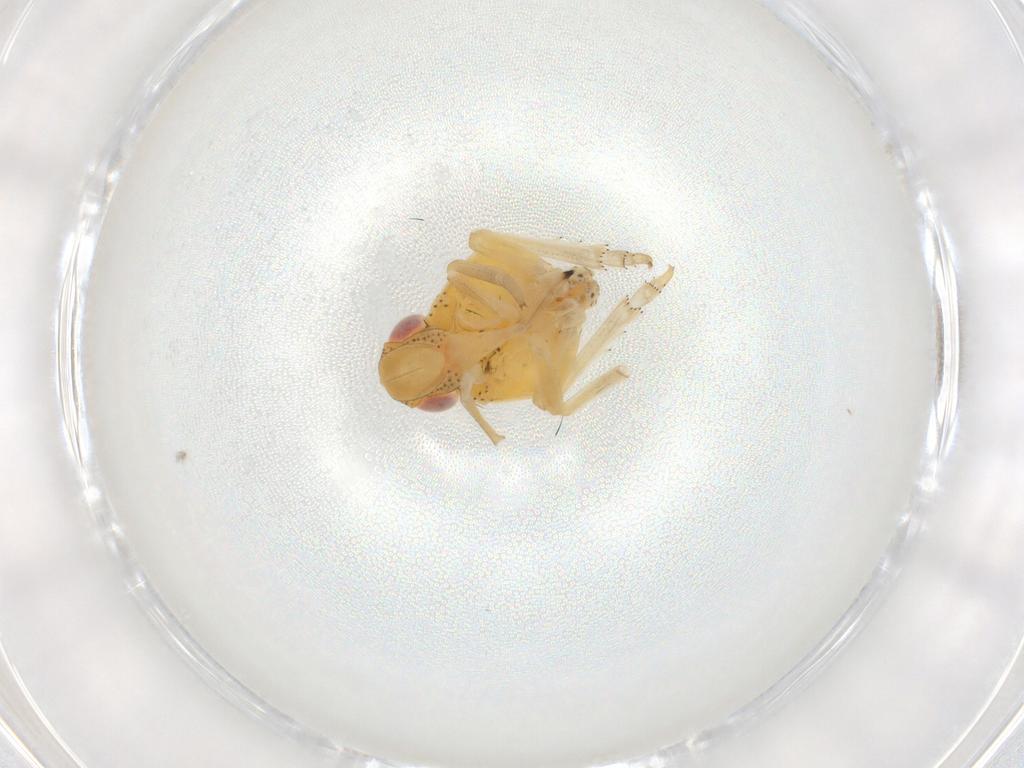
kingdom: Animalia
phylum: Arthropoda
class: Insecta
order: Hemiptera
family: Tropiduchidae
